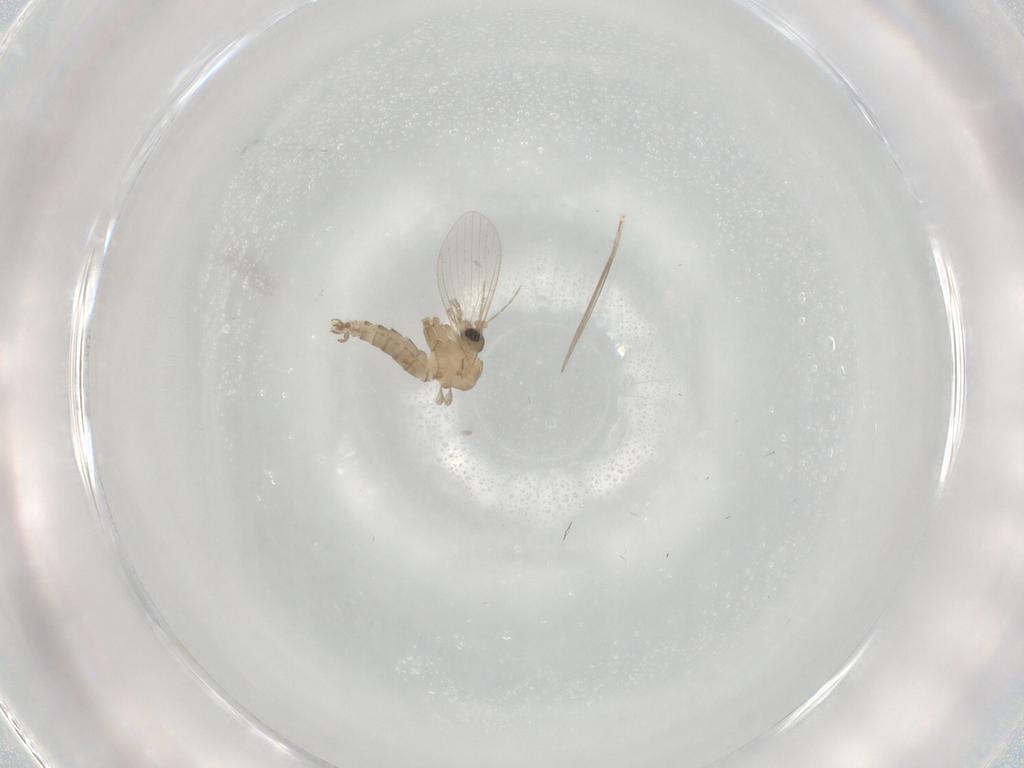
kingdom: Animalia
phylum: Arthropoda
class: Insecta
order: Diptera
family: Psychodidae
